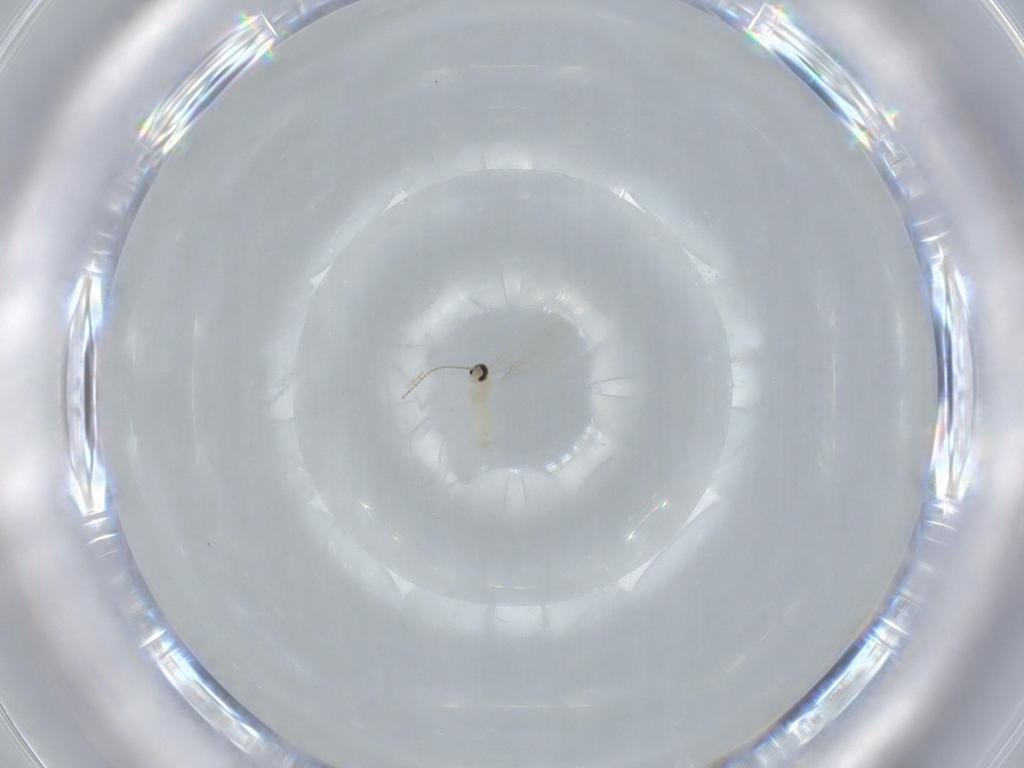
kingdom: Animalia
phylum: Arthropoda
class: Insecta
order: Diptera
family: Cecidomyiidae
